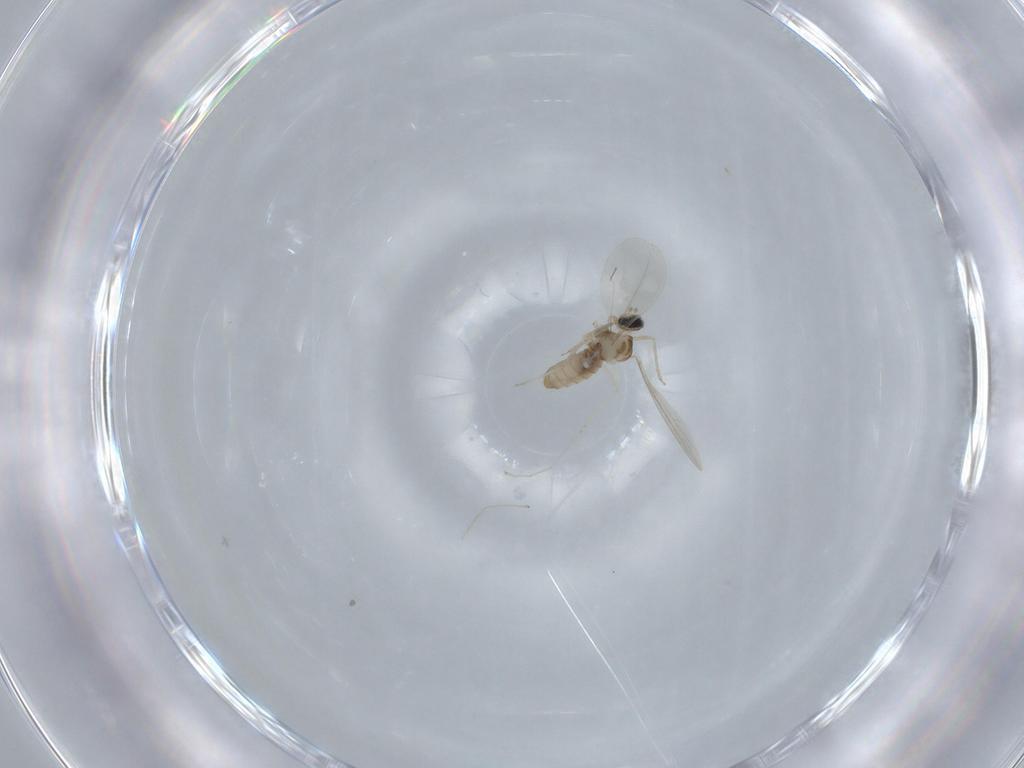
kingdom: Animalia
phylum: Arthropoda
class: Insecta
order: Diptera
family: Cecidomyiidae
